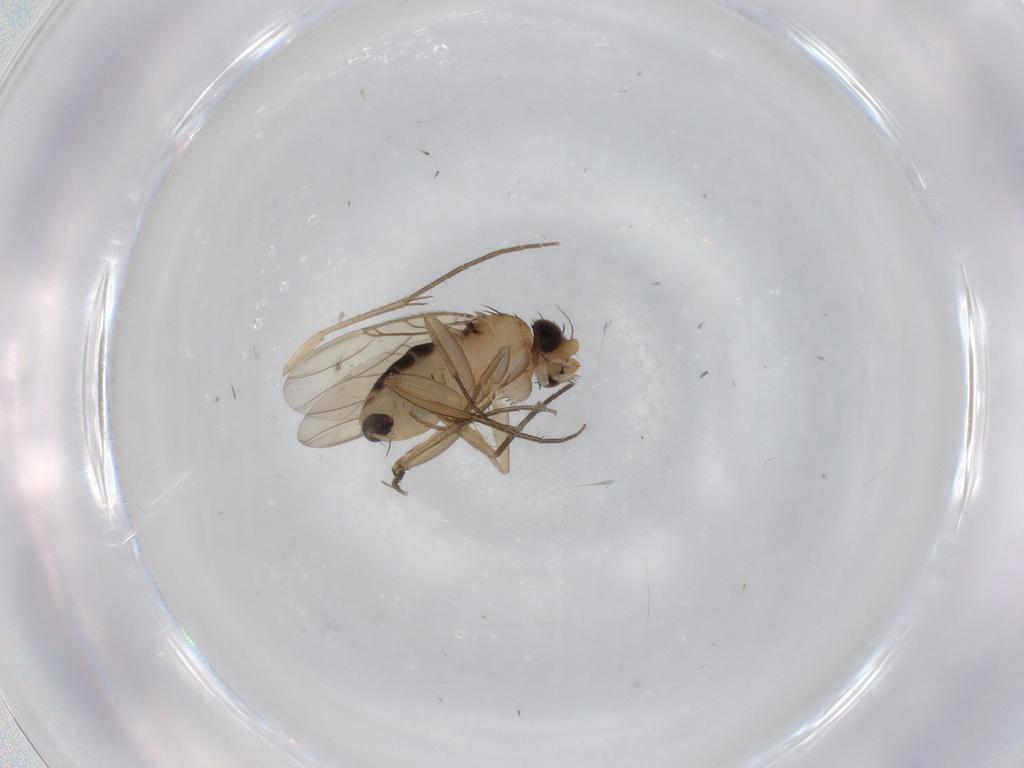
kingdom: Animalia
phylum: Arthropoda
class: Insecta
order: Diptera
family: Phoridae
